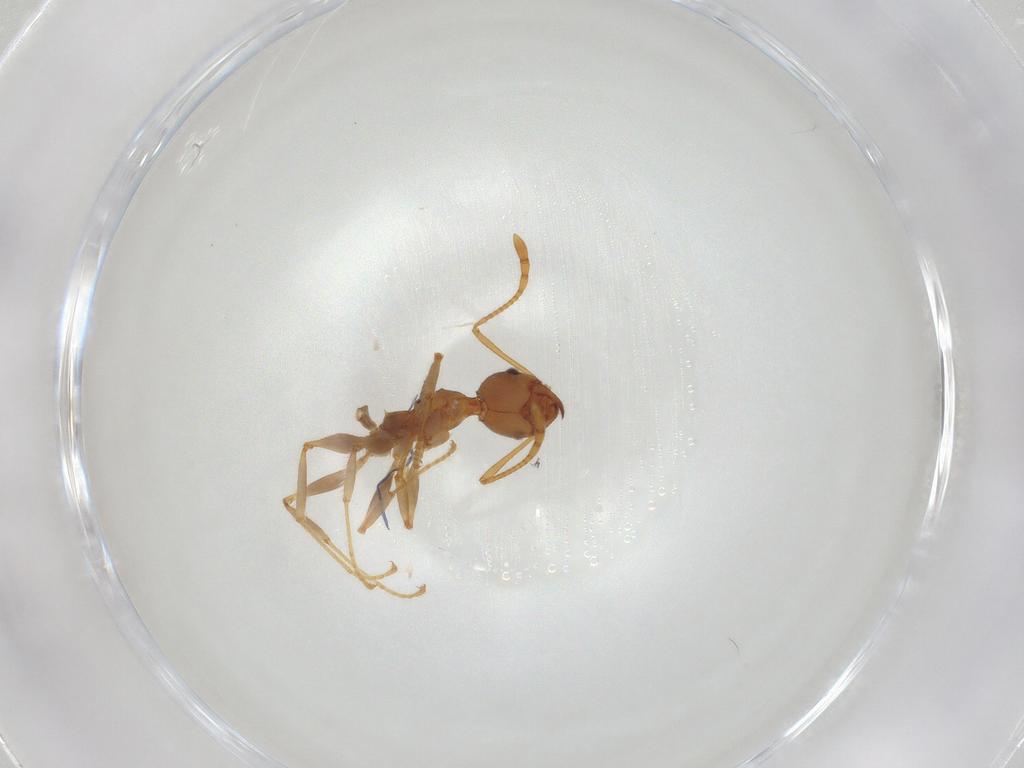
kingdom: Animalia
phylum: Arthropoda
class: Insecta
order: Hymenoptera
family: Formicidae
